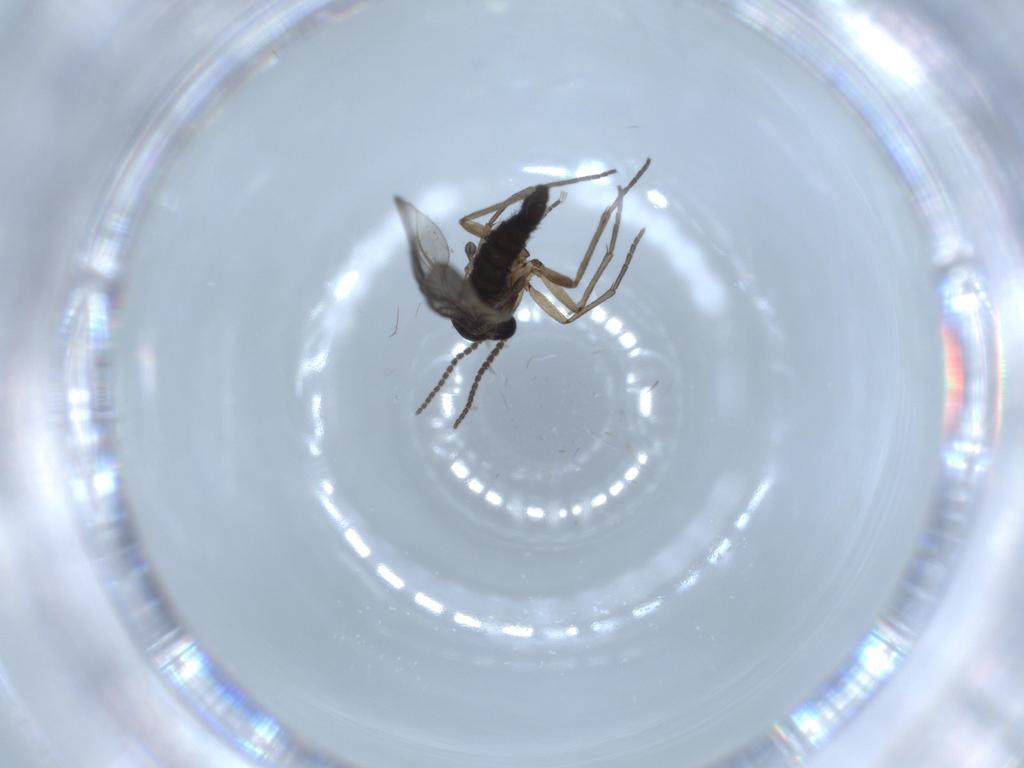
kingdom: Animalia
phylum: Arthropoda
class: Insecta
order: Diptera
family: Sciaridae
